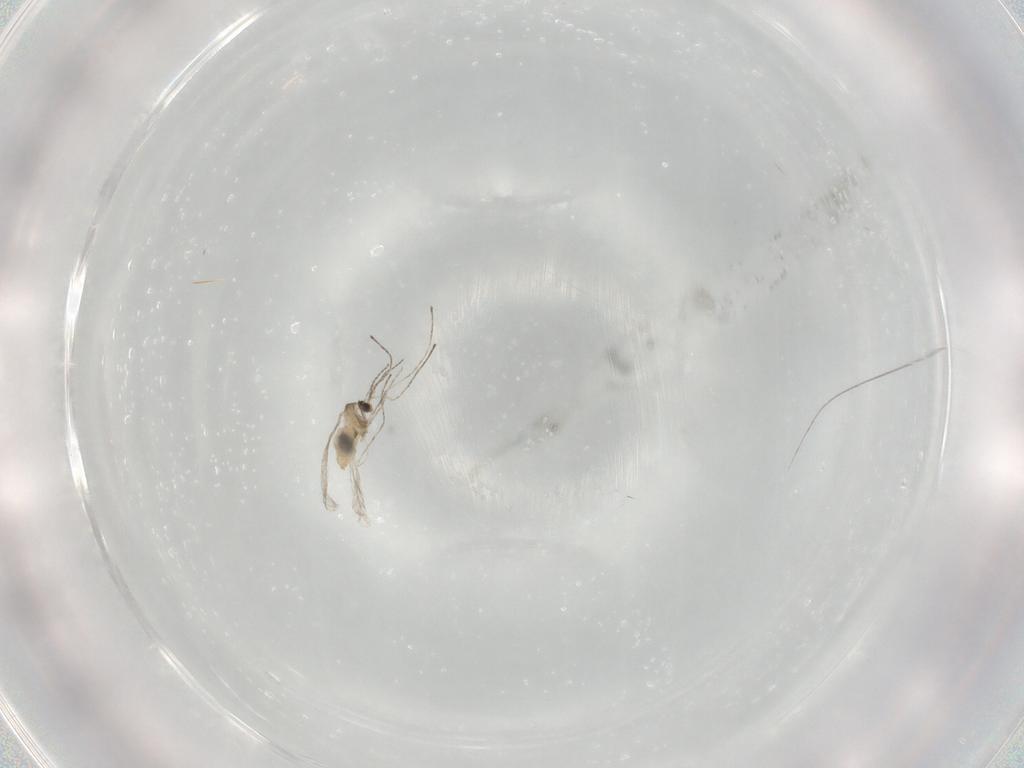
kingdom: Animalia
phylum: Arthropoda
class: Insecta
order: Diptera
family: Cecidomyiidae
